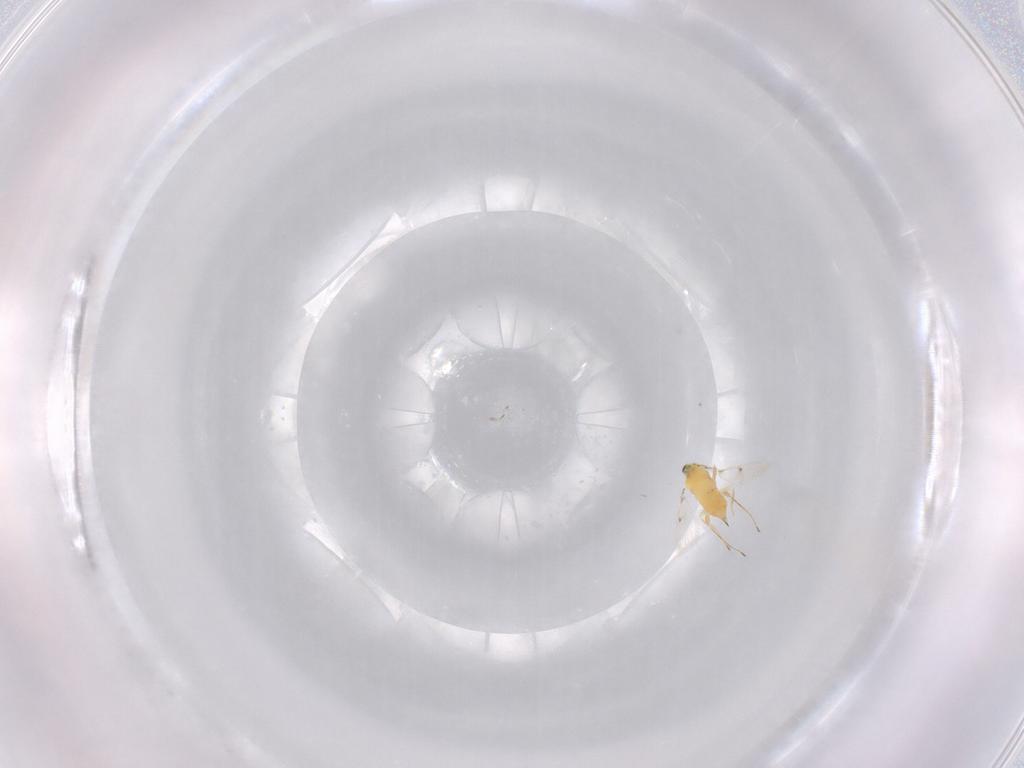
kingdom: Animalia
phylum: Arthropoda
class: Insecta
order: Hymenoptera
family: Trichogrammatidae
